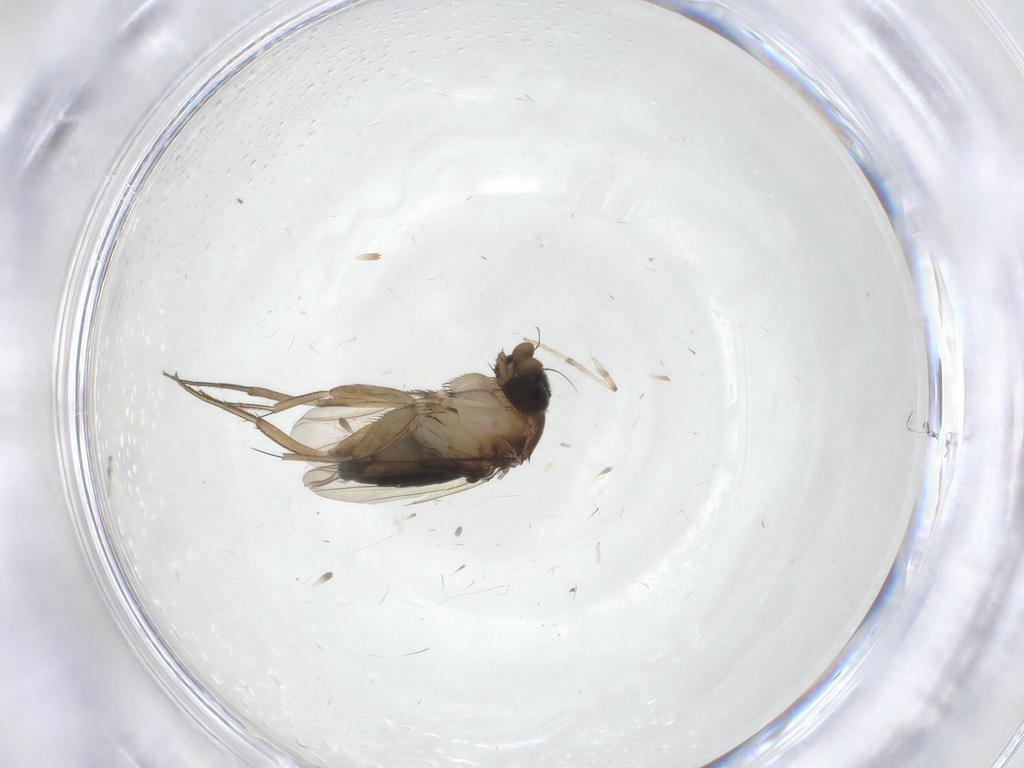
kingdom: Animalia
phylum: Arthropoda
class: Insecta
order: Diptera
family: Phoridae
